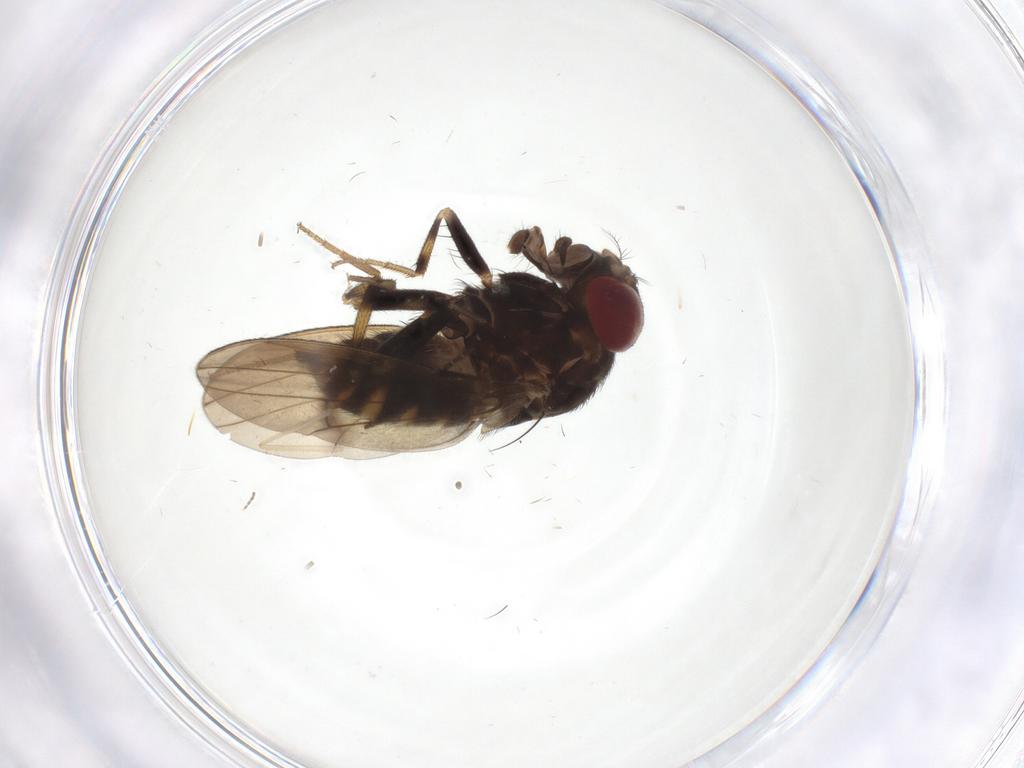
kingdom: Animalia
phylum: Arthropoda
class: Insecta
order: Diptera
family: Drosophilidae
